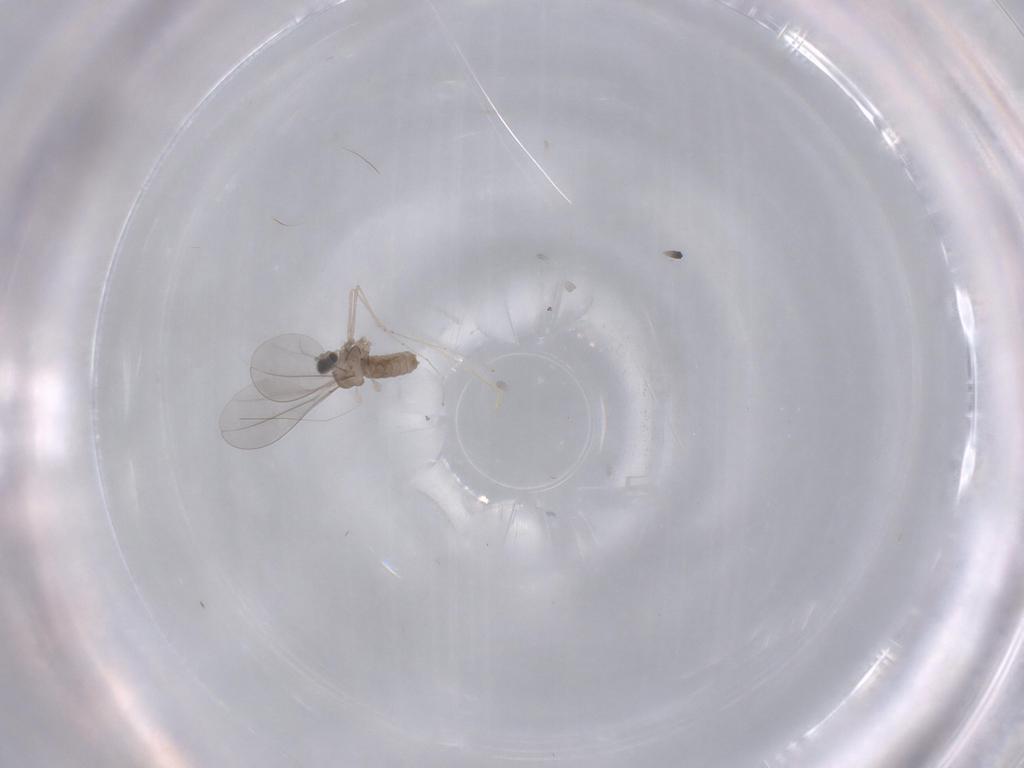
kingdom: Animalia
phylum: Arthropoda
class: Insecta
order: Diptera
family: Cecidomyiidae
